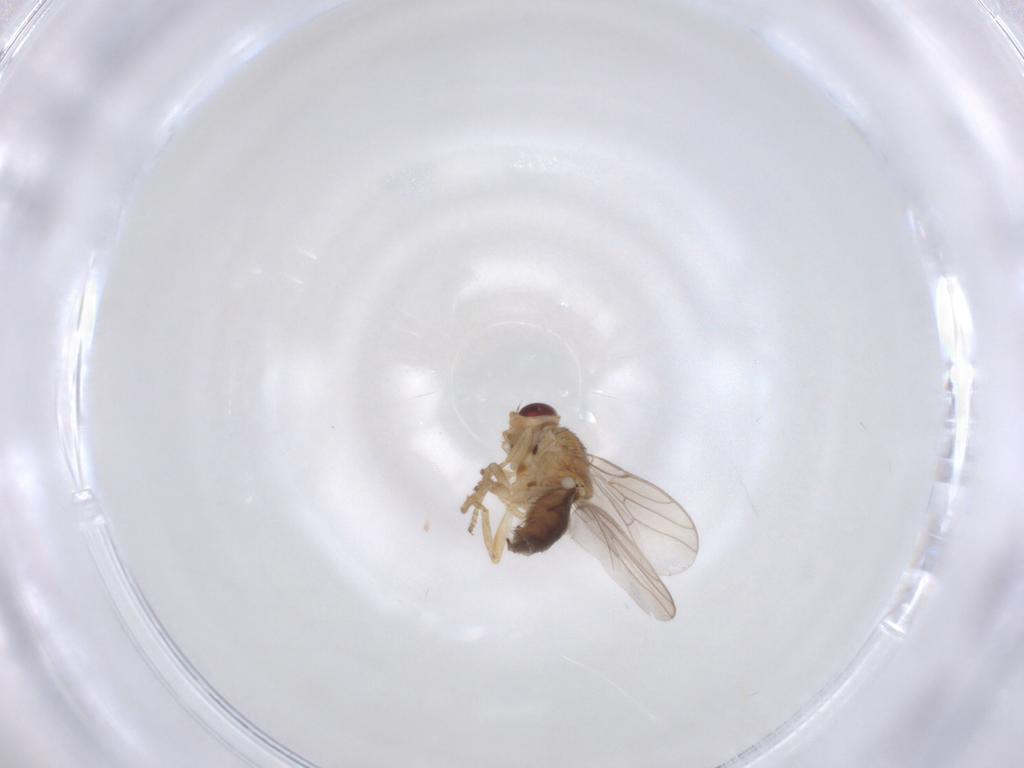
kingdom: Animalia
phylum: Arthropoda
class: Insecta
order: Diptera
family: Chloropidae
